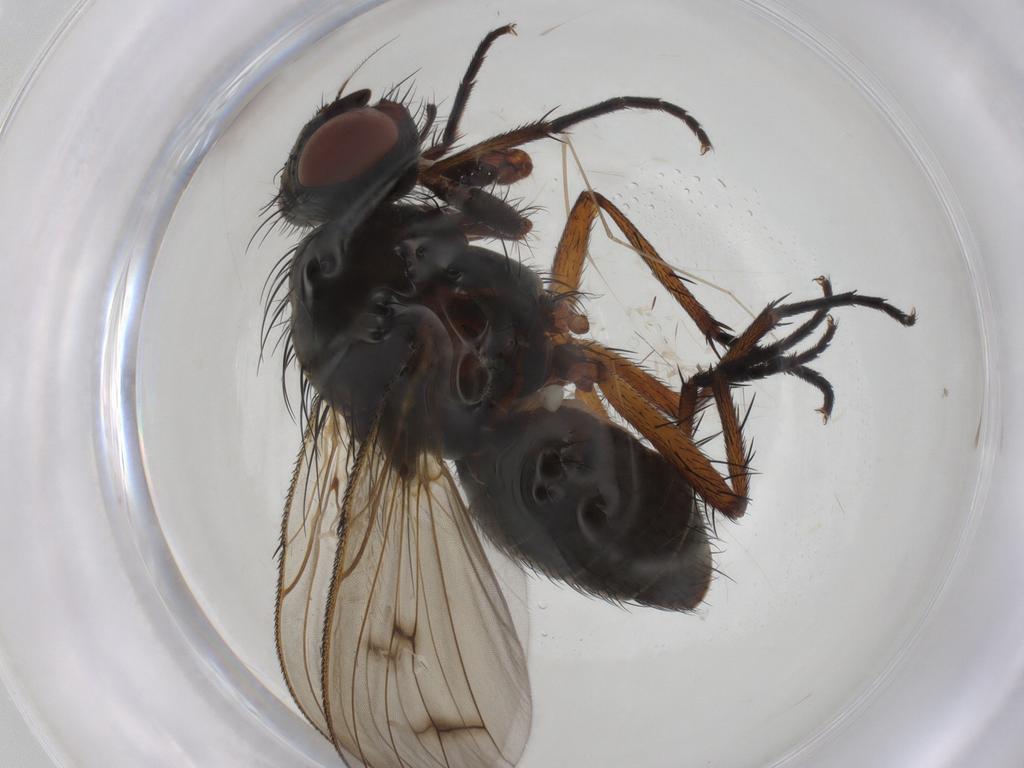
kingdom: Animalia
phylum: Arthropoda
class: Insecta
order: Diptera
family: Anthomyiidae
